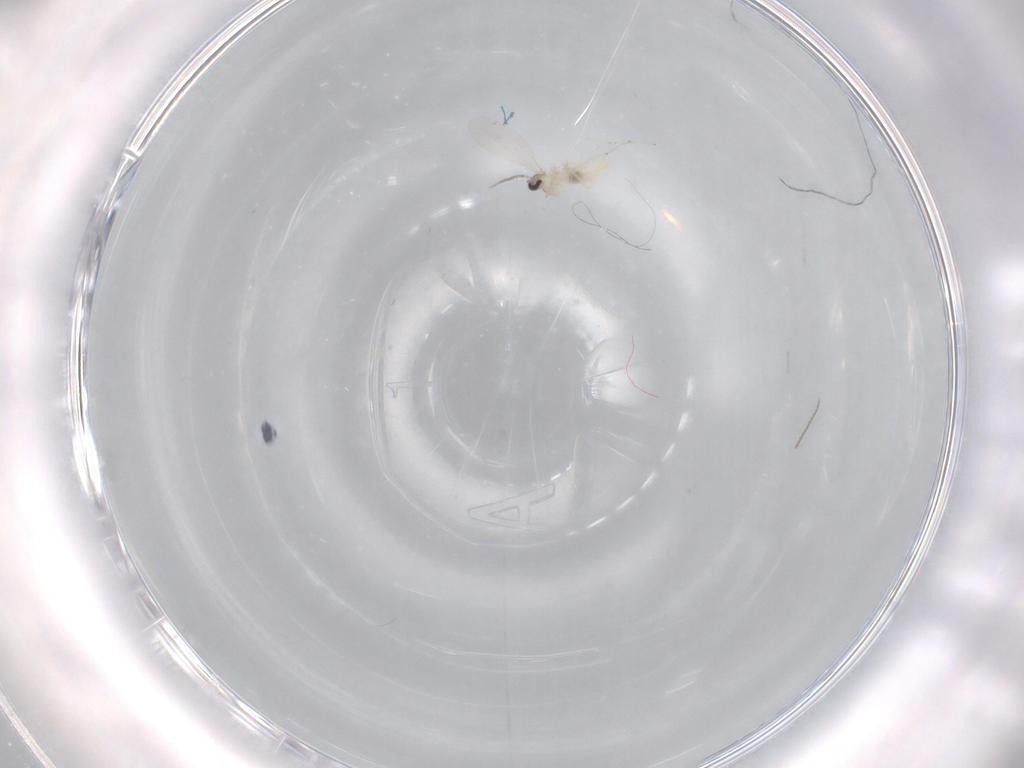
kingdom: Animalia
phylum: Arthropoda
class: Insecta
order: Diptera
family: Cecidomyiidae
